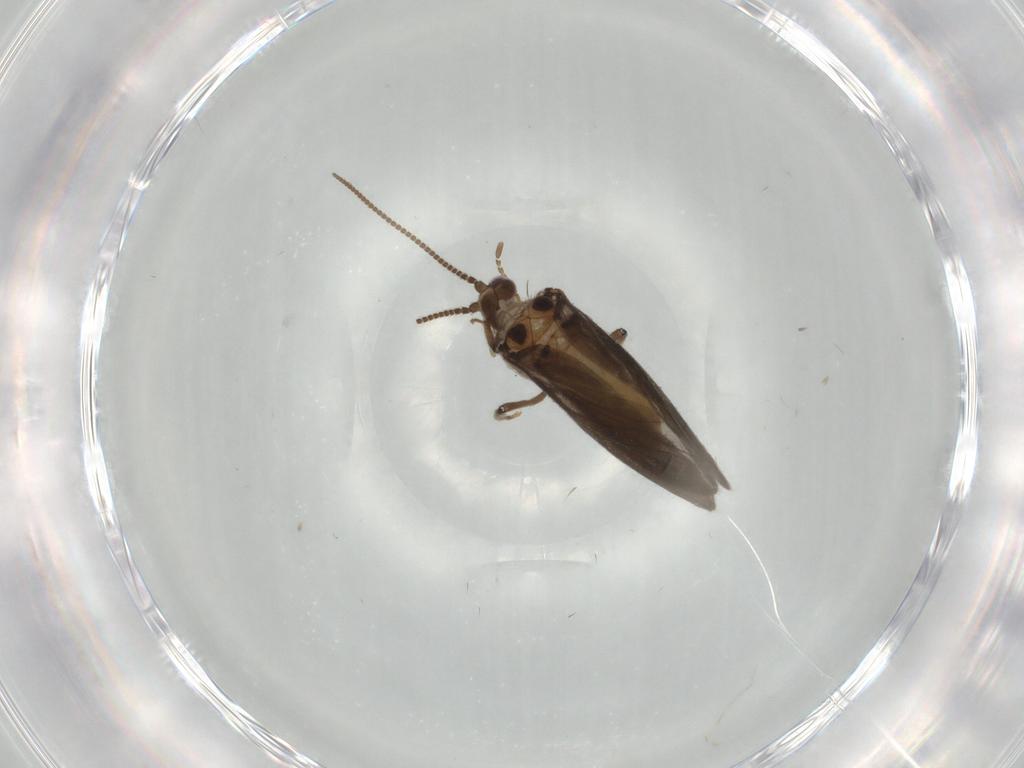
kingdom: Animalia
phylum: Arthropoda
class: Insecta
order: Neuroptera
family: Coniopterygidae
